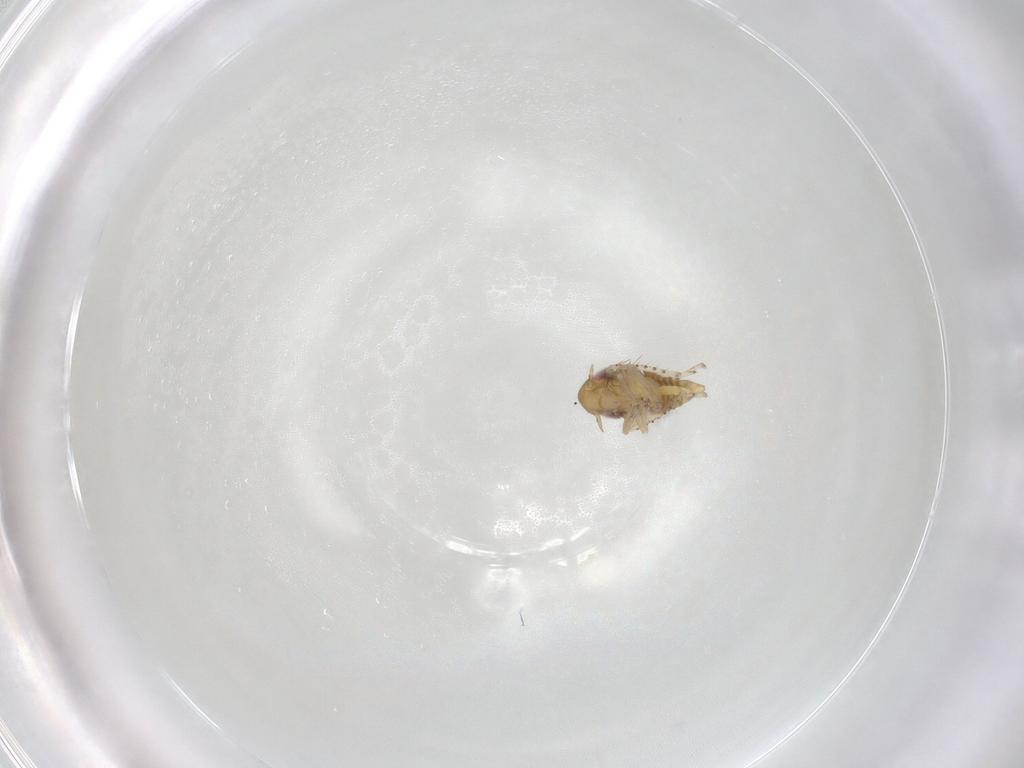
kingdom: Animalia
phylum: Arthropoda
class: Insecta
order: Hemiptera
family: Cicadellidae
